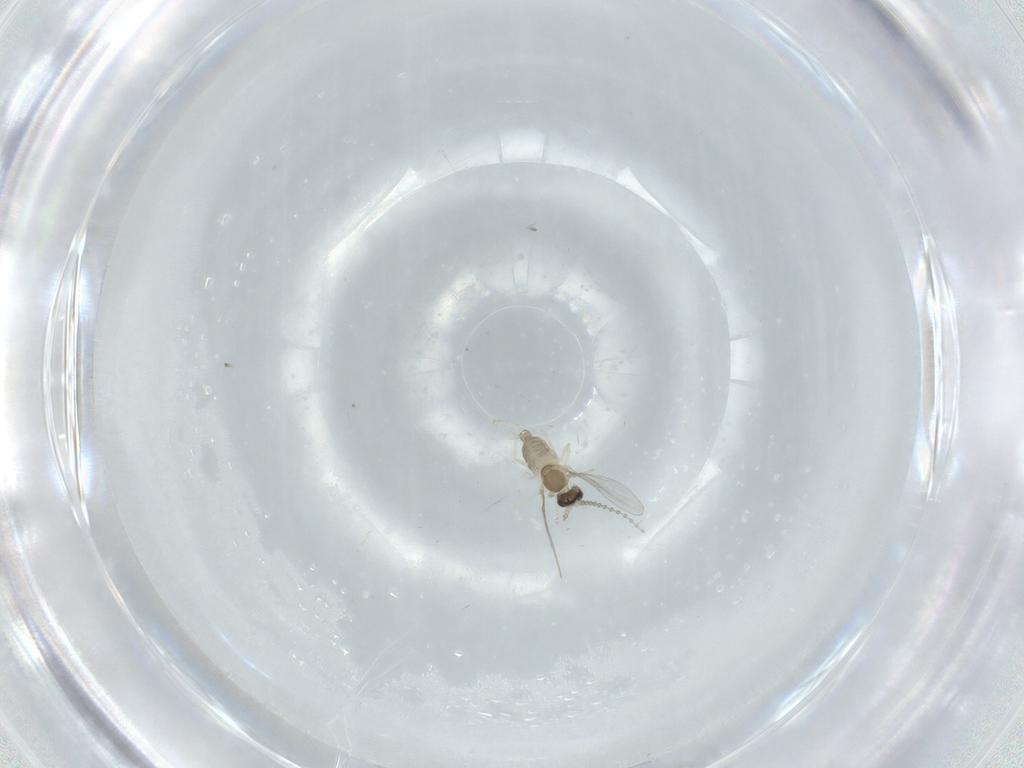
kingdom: Animalia
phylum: Arthropoda
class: Insecta
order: Diptera
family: Cecidomyiidae
